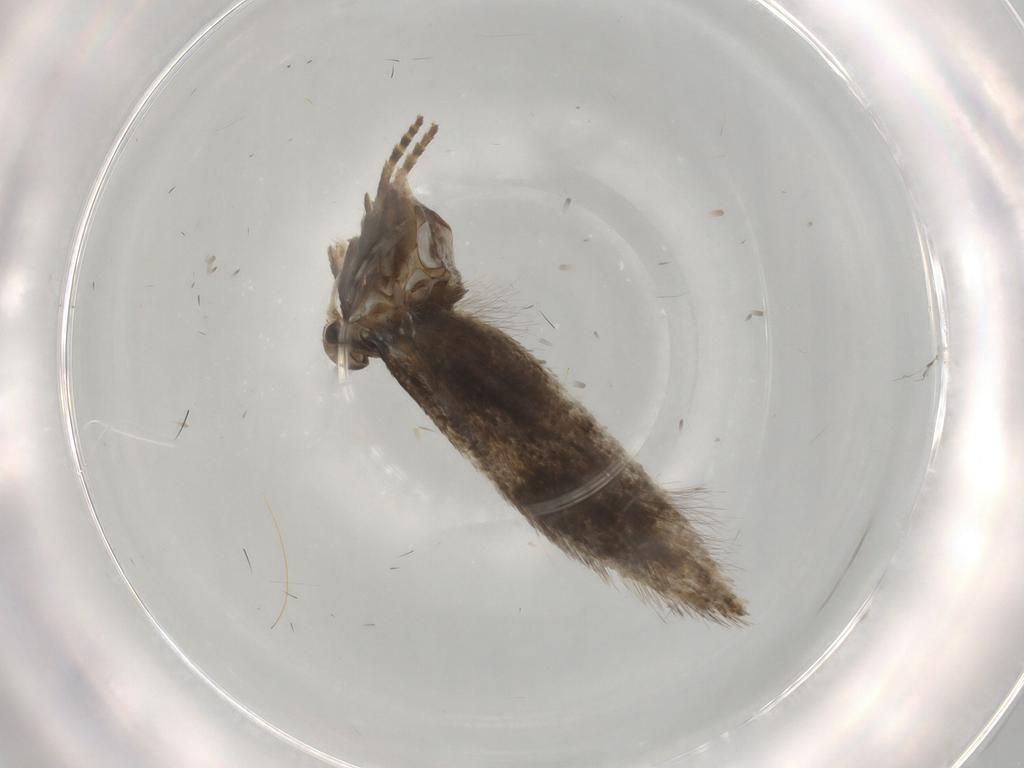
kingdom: Animalia
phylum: Arthropoda
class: Insecta
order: Lepidoptera
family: Elachistidae
